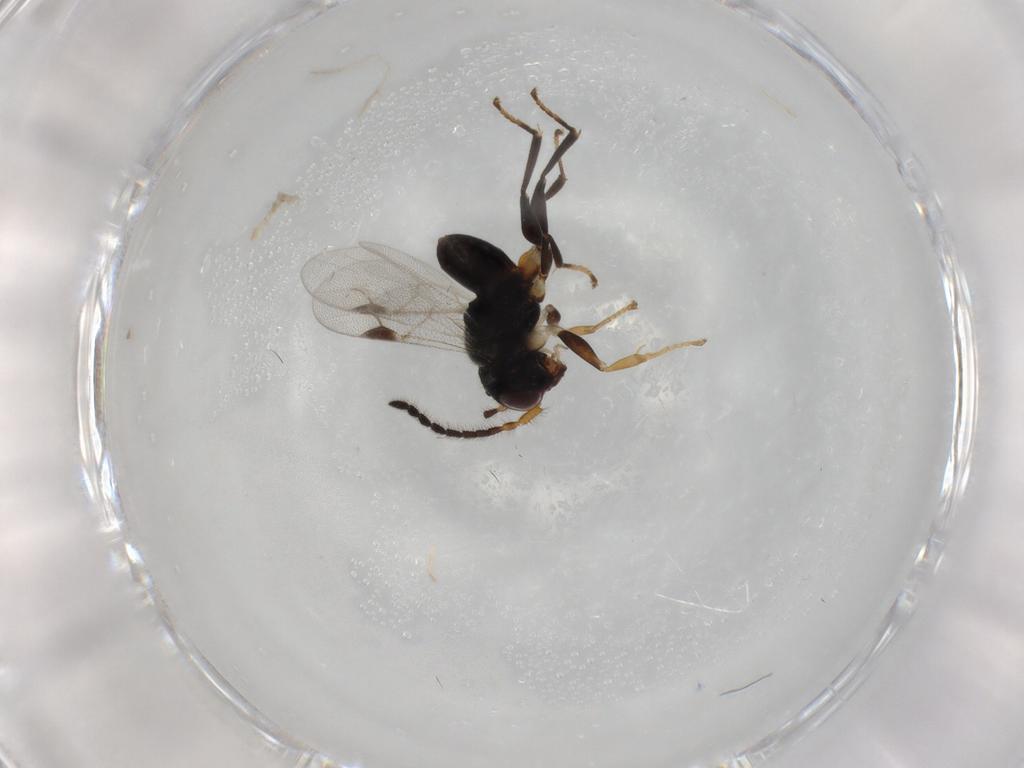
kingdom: Animalia
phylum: Arthropoda
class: Insecta
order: Hymenoptera
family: Dryinidae
